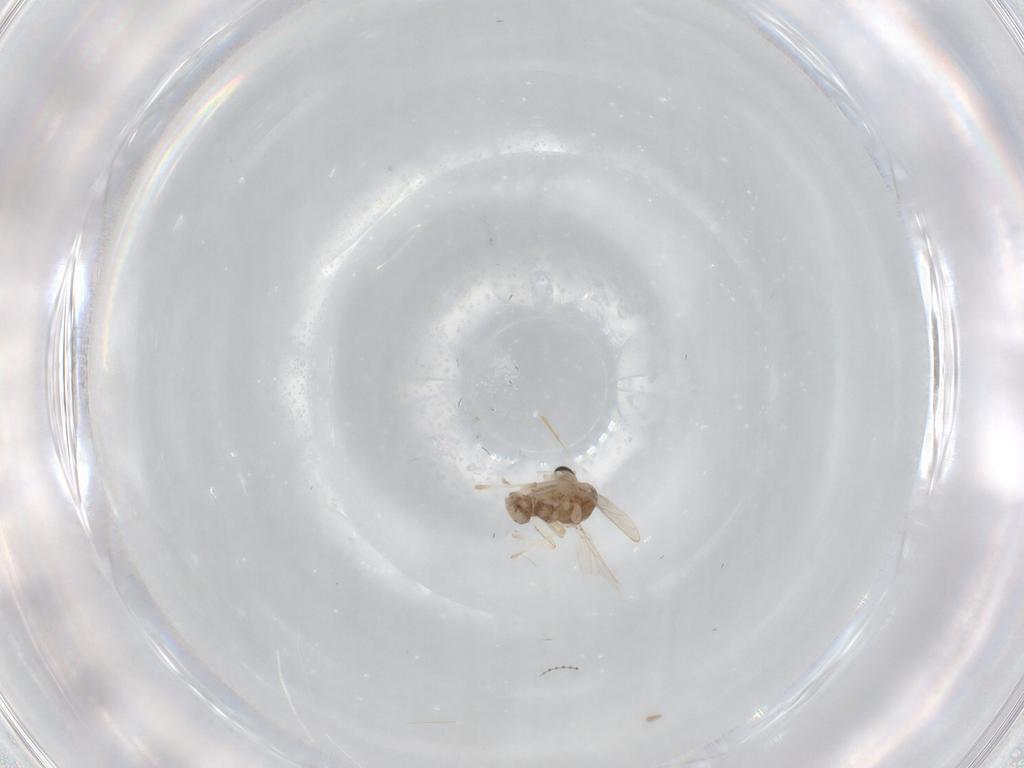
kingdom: Animalia
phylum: Arthropoda
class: Insecta
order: Diptera
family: Cecidomyiidae
